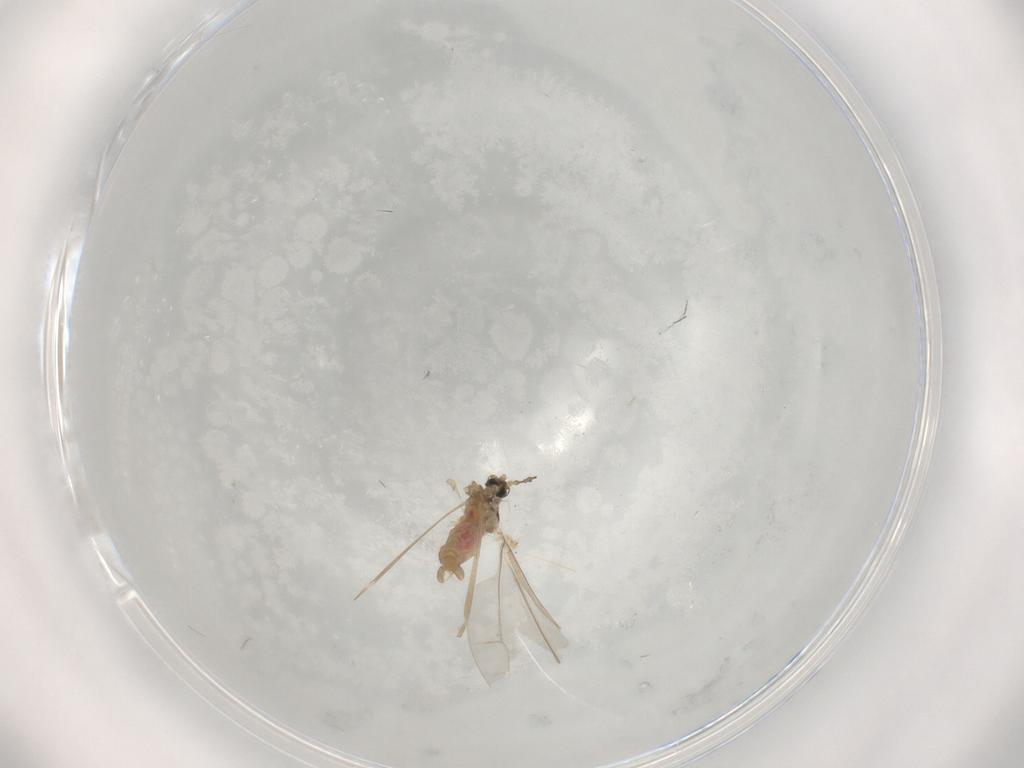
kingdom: Animalia
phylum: Arthropoda
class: Insecta
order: Diptera
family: Cecidomyiidae
